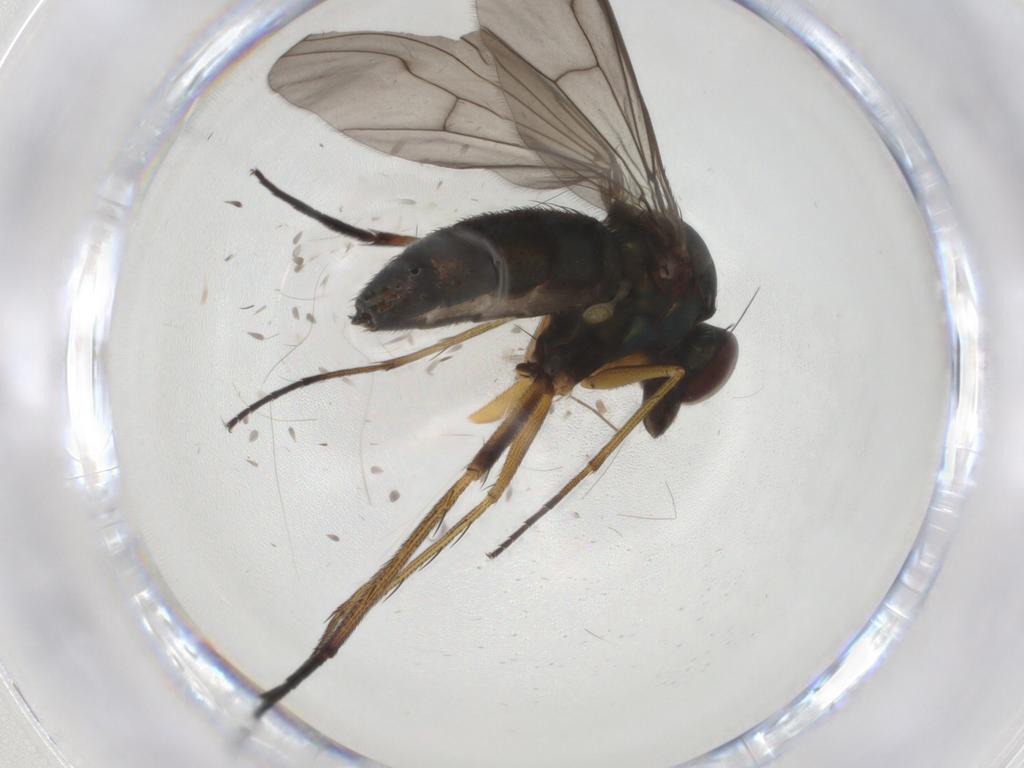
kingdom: Animalia
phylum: Arthropoda
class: Insecta
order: Diptera
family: Dolichopodidae
